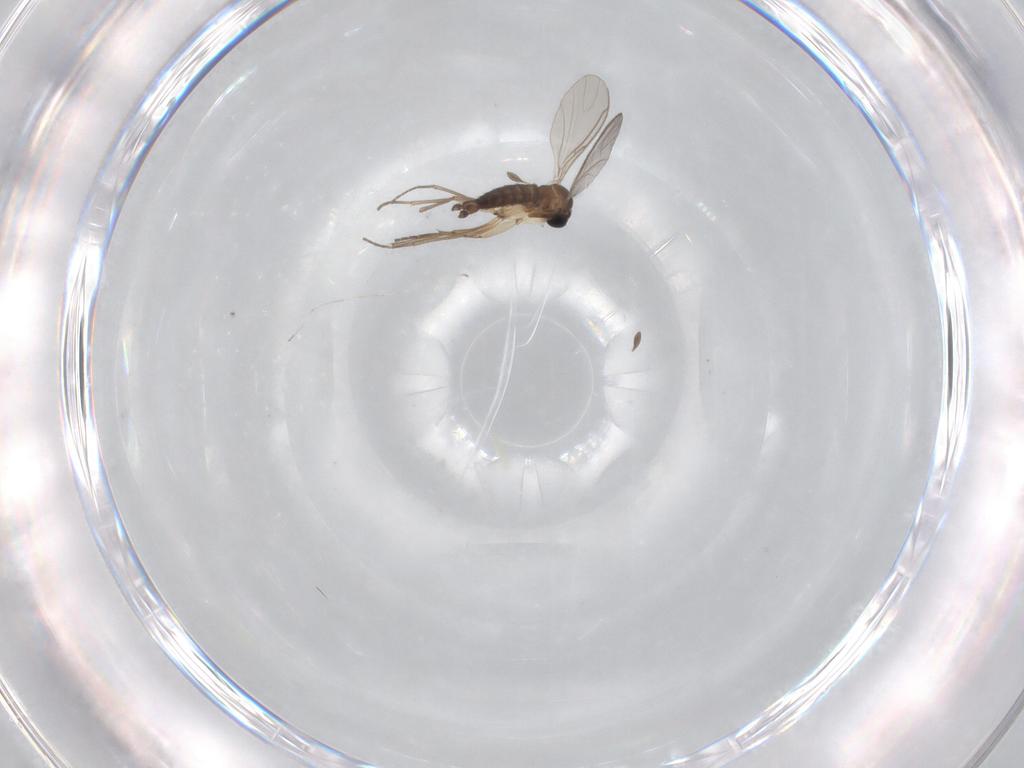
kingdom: Animalia
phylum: Arthropoda
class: Insecta
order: Diptera
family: Sciaridae
